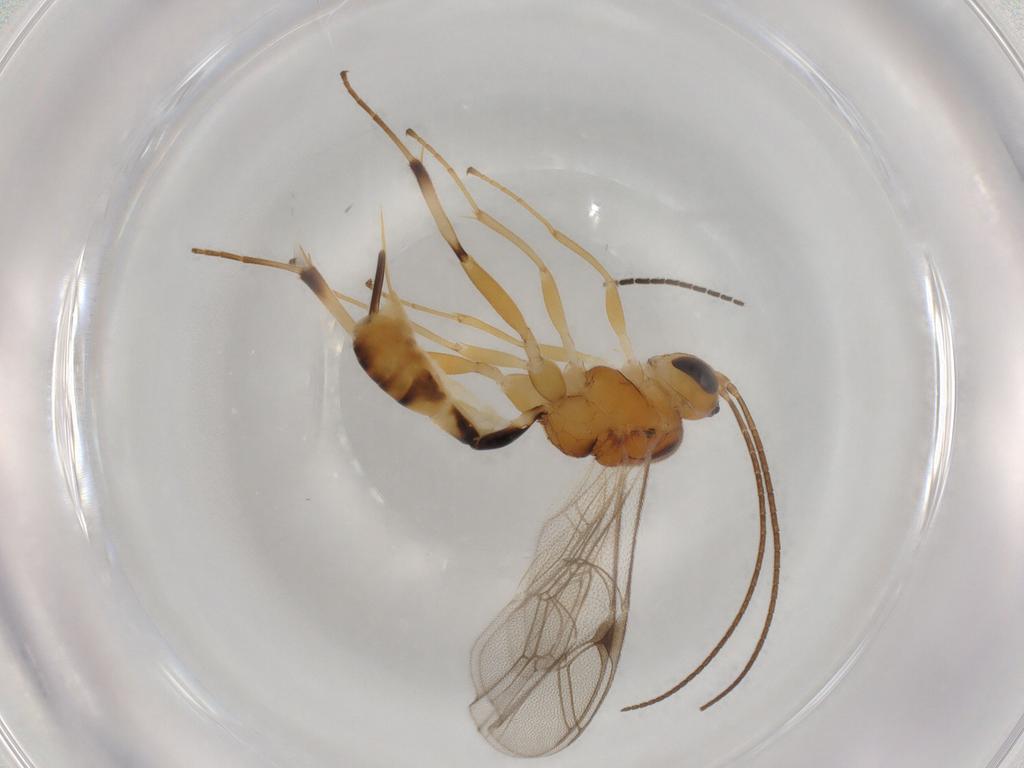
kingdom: Animalia
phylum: Arthropoda
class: Insecta
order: Hymenoptera
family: Ichneumonidae
